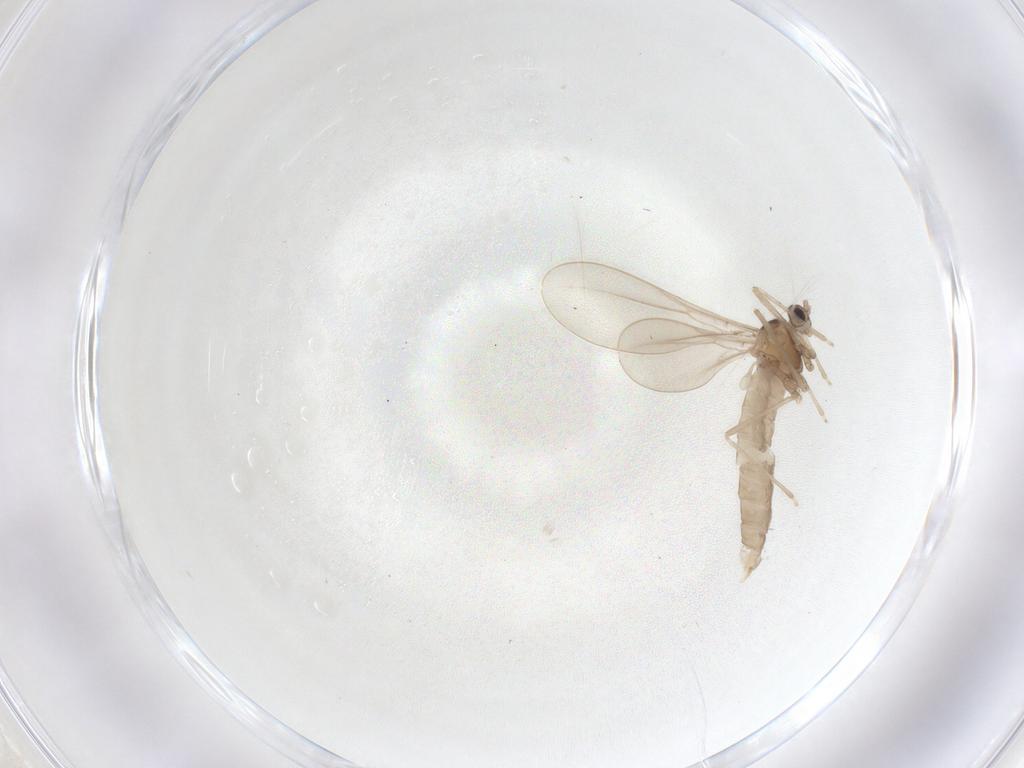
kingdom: Animalia
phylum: Arthropoda
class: Insecta
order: Diptera
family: Cecidomyiidae
